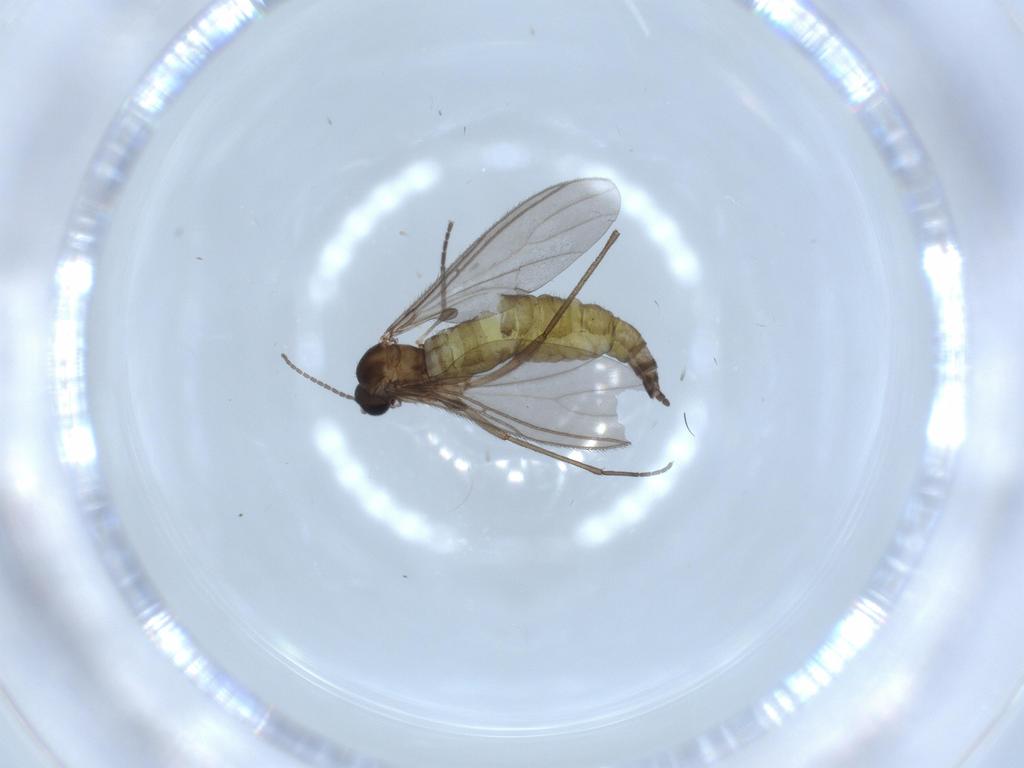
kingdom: Animalia
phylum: Arthropoda
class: Insecta
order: Diptera
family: Sciaridae
